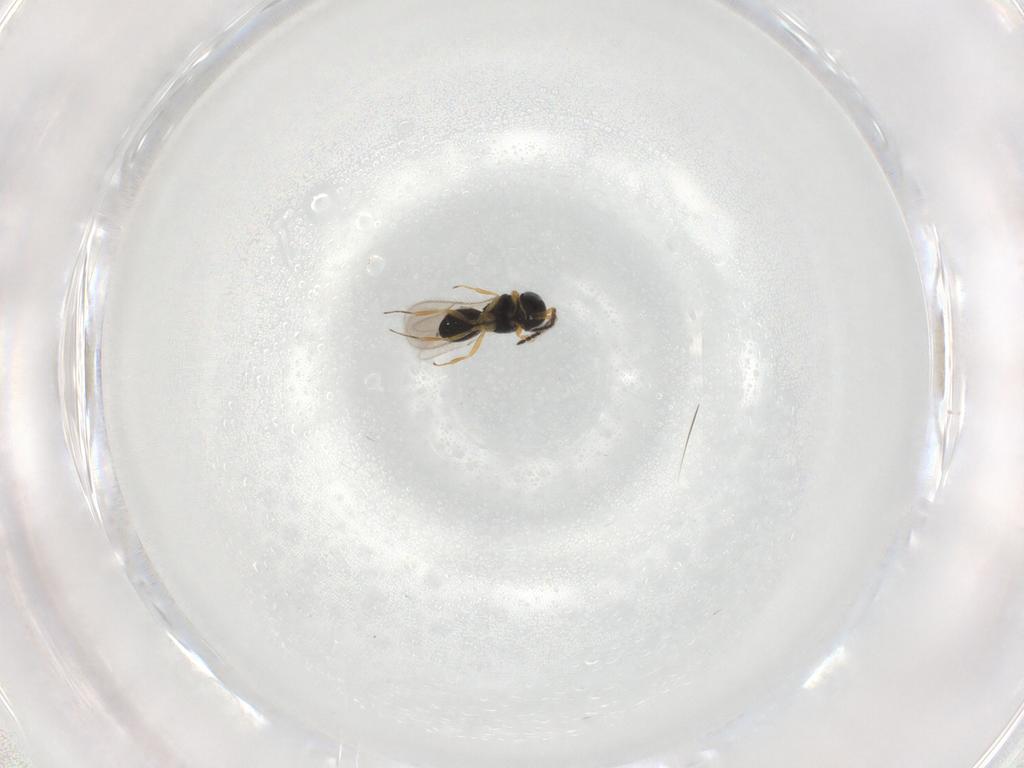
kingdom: Animalia
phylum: Arthropoda
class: Insecta
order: Hymenoptera
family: Scelionidae
